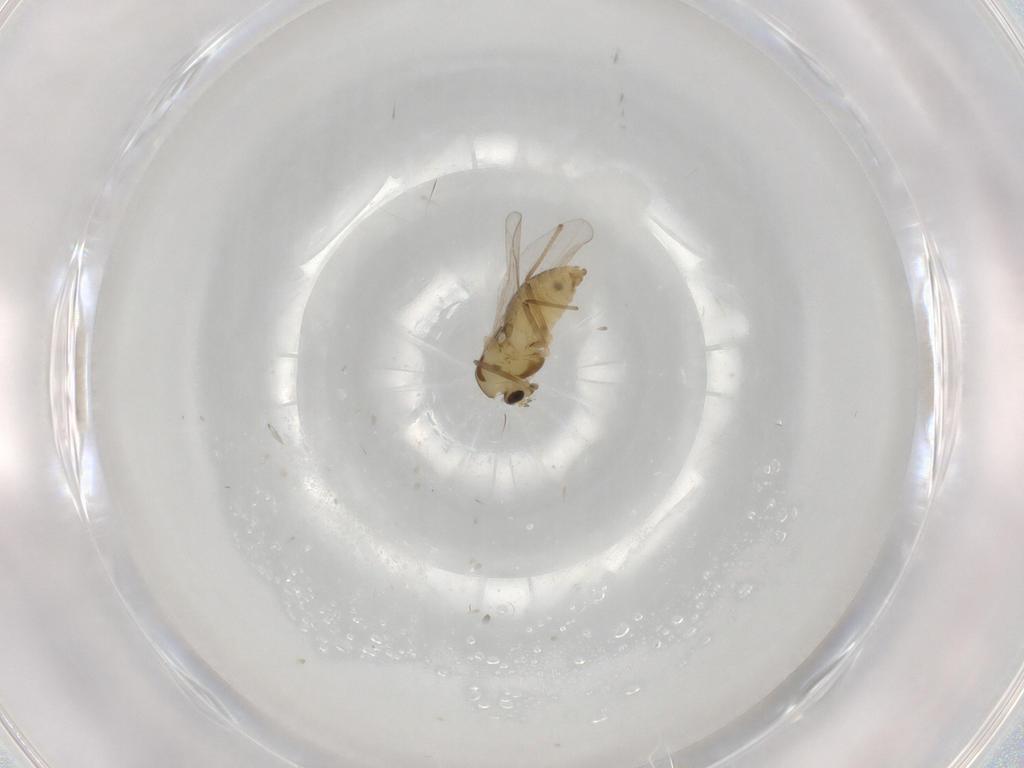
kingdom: Animalia
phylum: Arthropoda
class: Insecta
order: Diptera
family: Chironomidae
